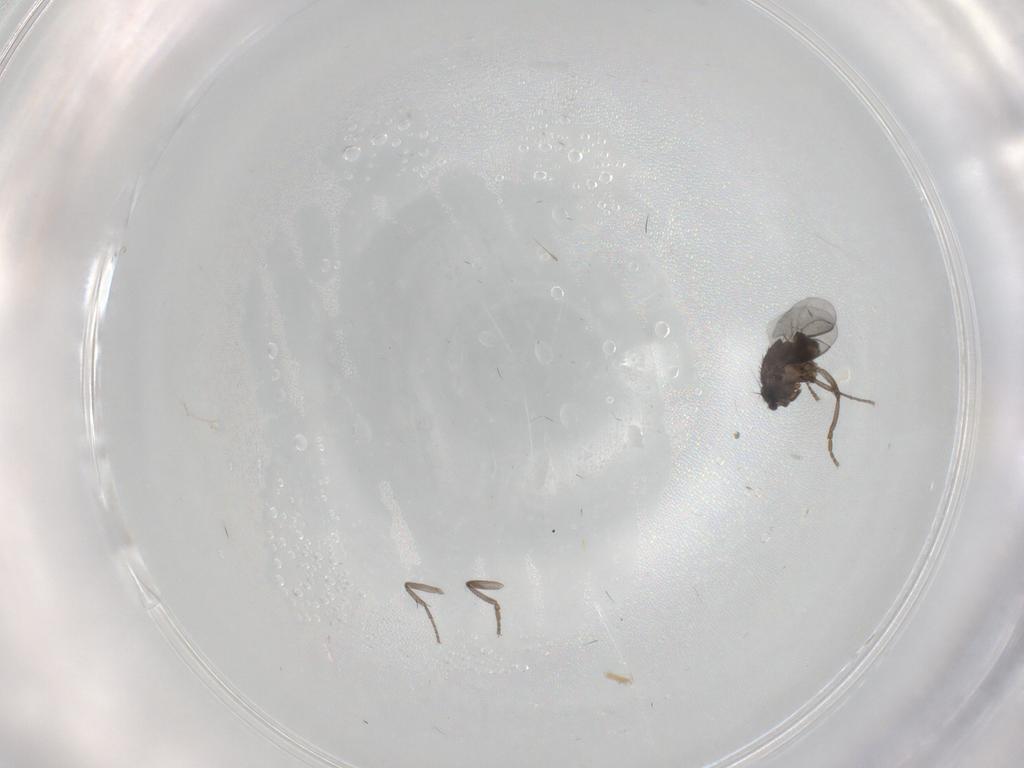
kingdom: Animalia
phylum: Arthropoda
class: Insecta
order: Diptera
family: Sphaeroceridae
